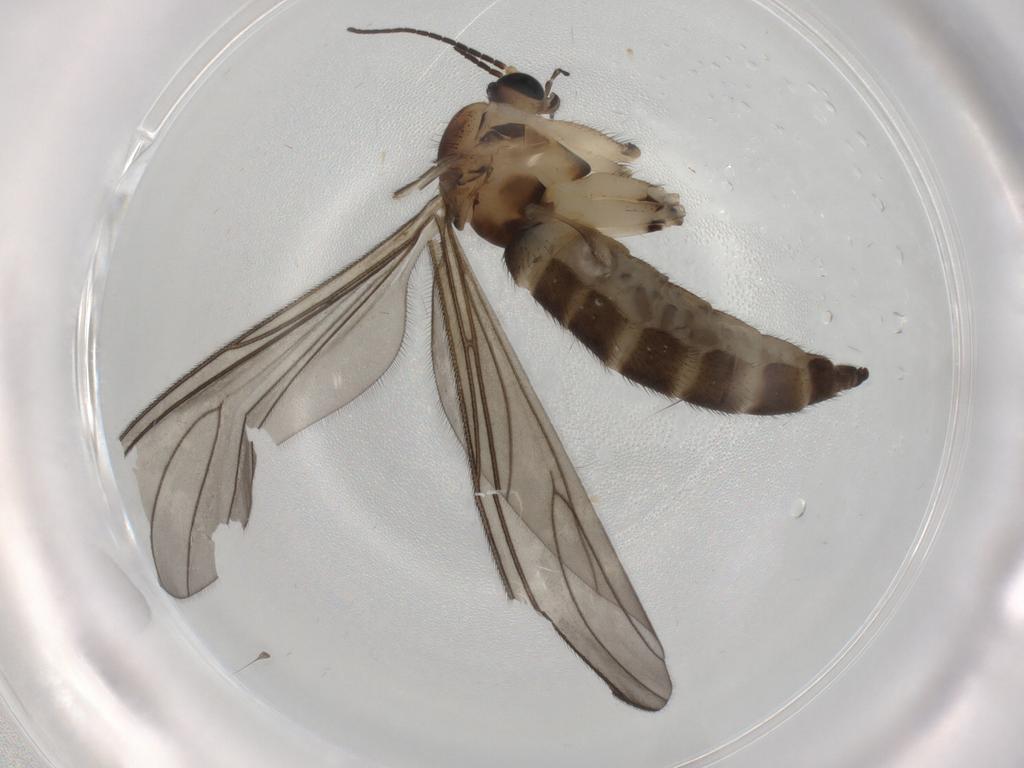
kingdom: Animalia
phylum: Arthropoda
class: Insecta
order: Diptera
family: Sciaridae
